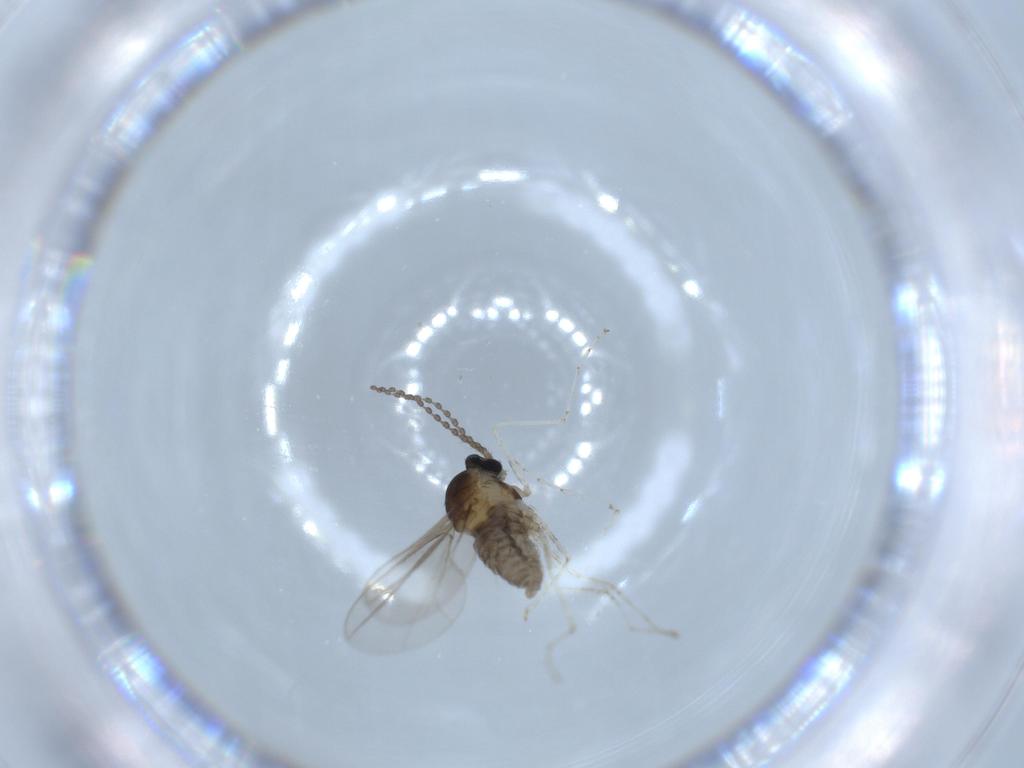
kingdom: Animalia
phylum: Arthropoda
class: Insecta
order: Diptera
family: Cecidomyiidae
